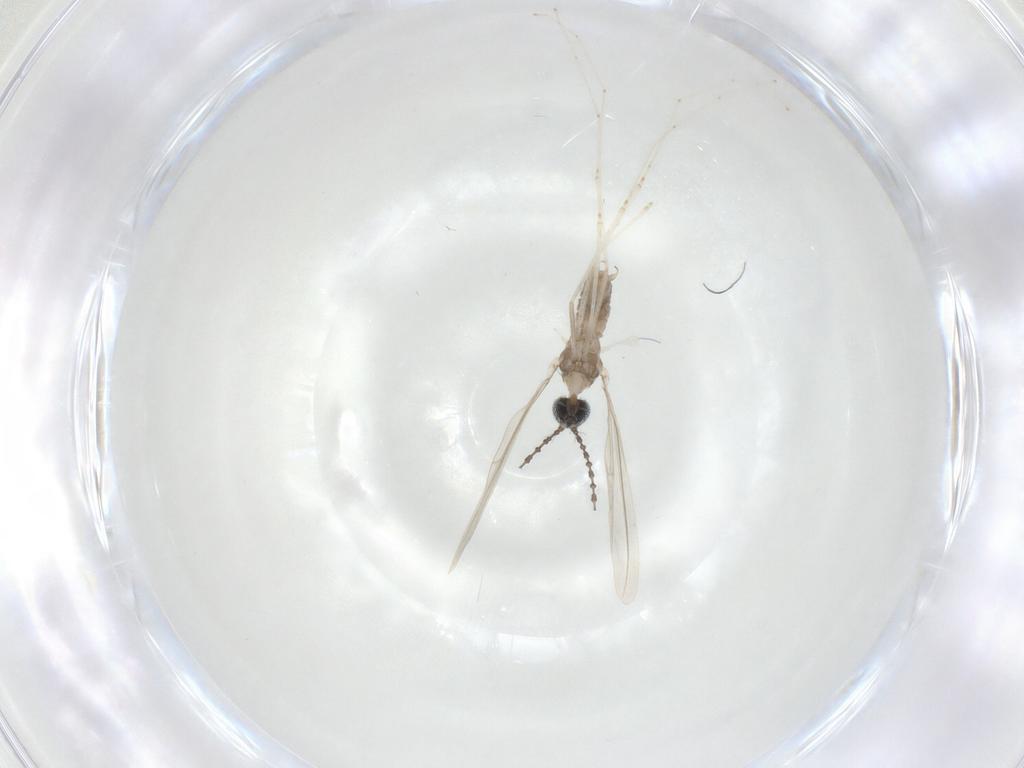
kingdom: Animalia
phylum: Arthropoda
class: Insecta
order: Diptera
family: Cecidomyiidae
